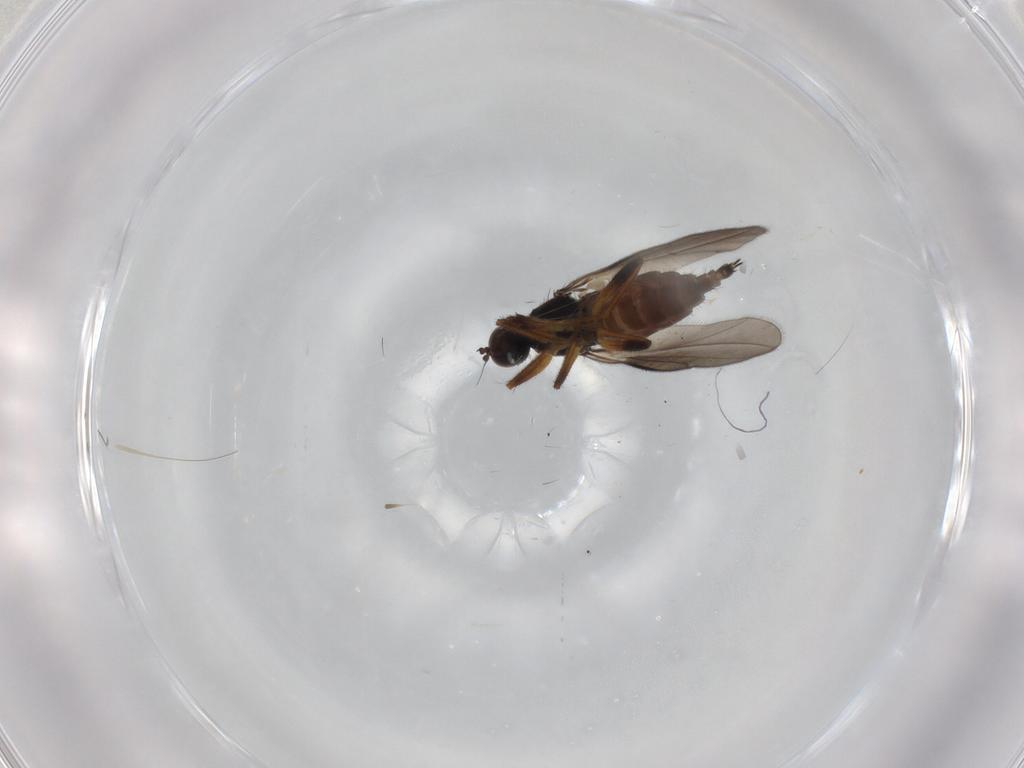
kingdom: Animalia
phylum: Arthropoda
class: Insecta
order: Diptera
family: Hybotidae
